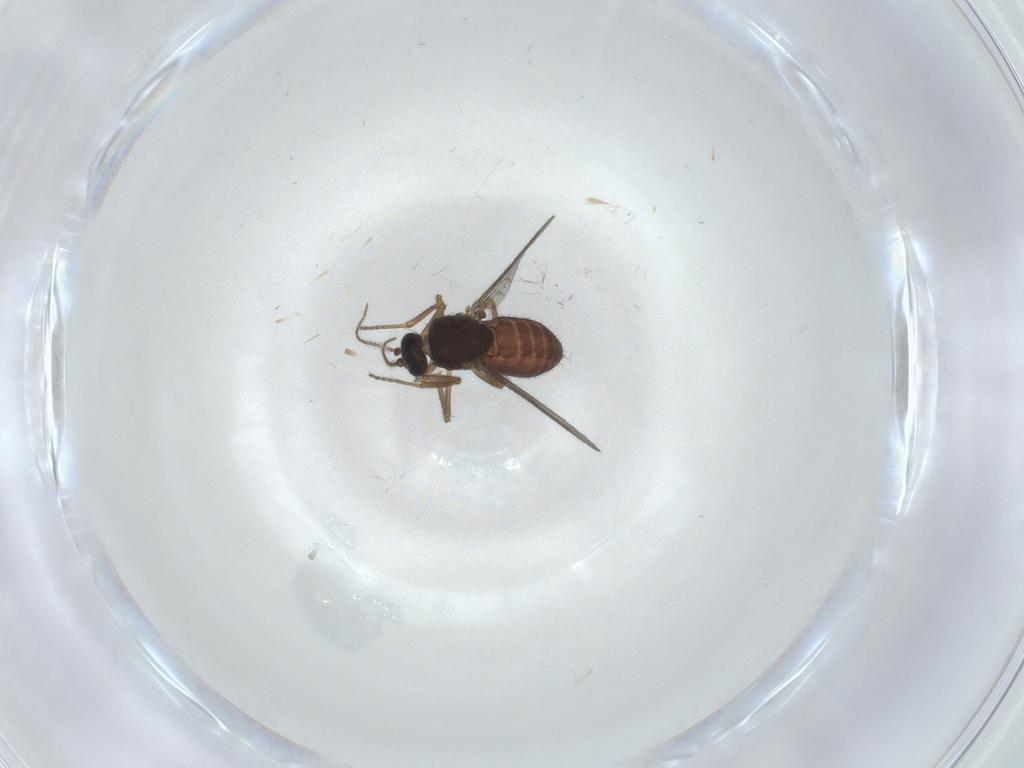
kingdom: Animalia
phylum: Arthropoda
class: Insecta
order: Diptera
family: Ceratopogonidae
